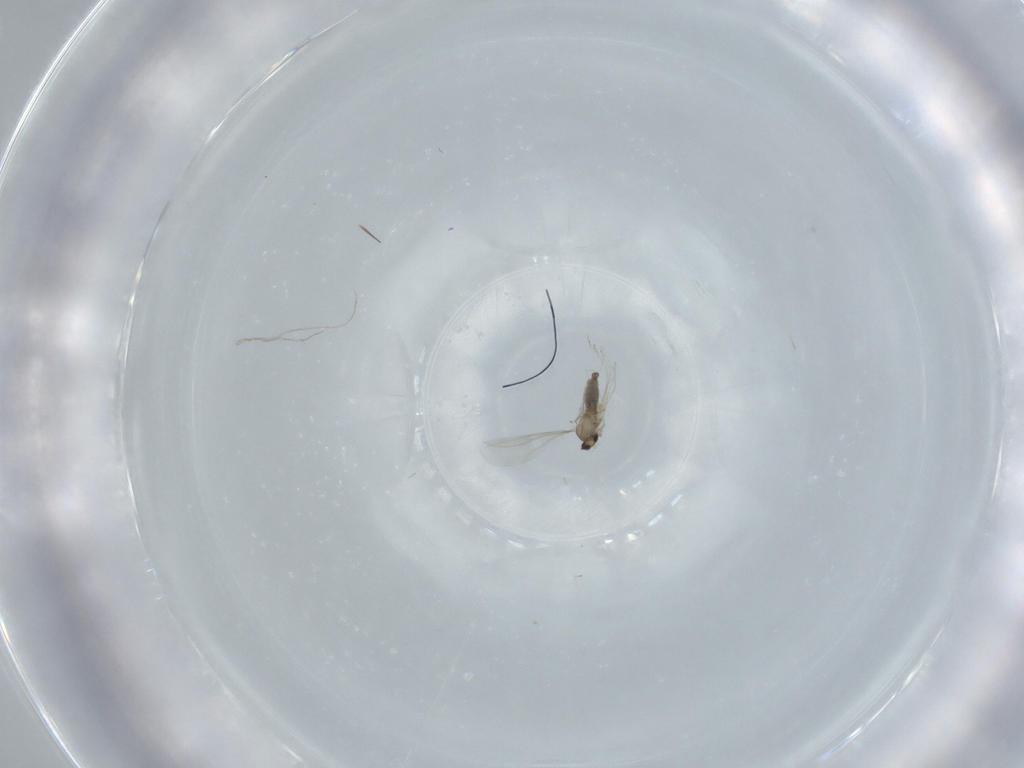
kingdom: Animalia
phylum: Arthropoda
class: Insecta
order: Diptera
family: Cecidomyiidae
